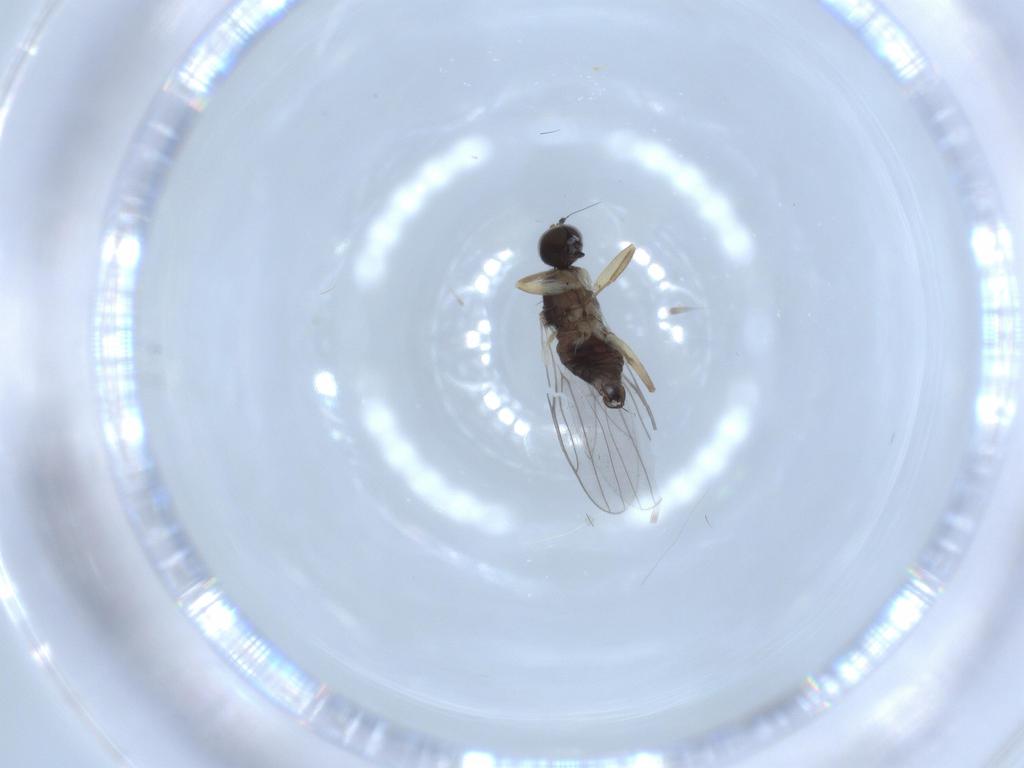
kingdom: Animalia
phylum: Arthropoda
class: Insecta
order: Diptera
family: Hybotidae
